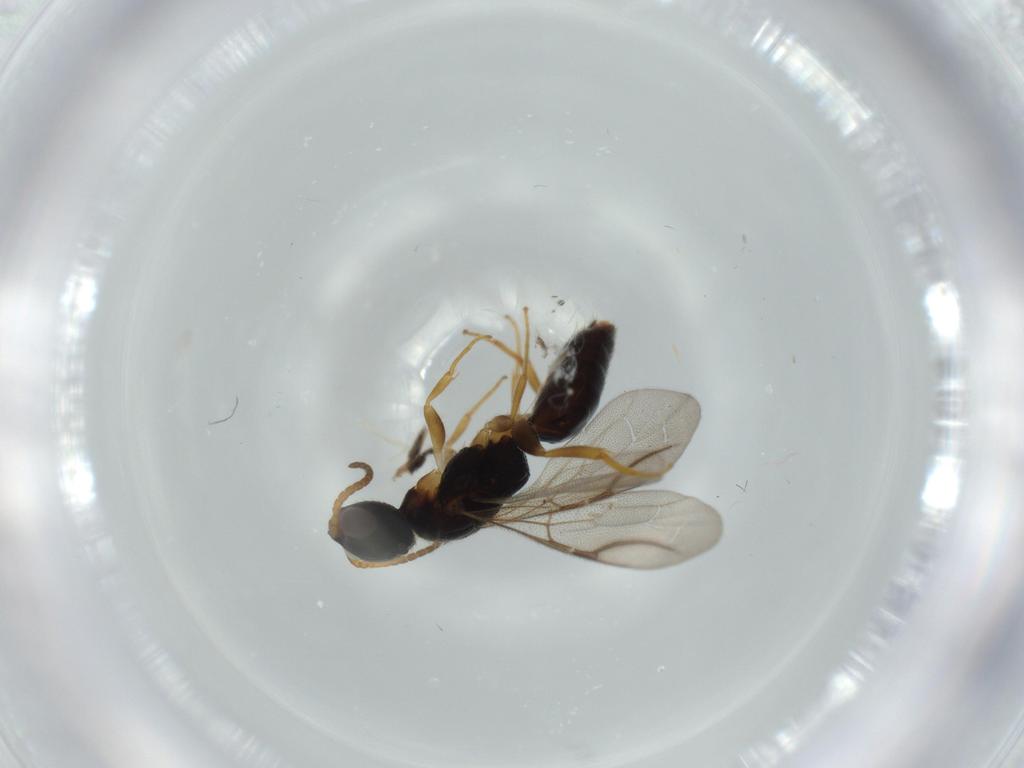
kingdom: Animalia
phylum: Arthropoda
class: Insecta
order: Hymenoptera
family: Bethylidae
